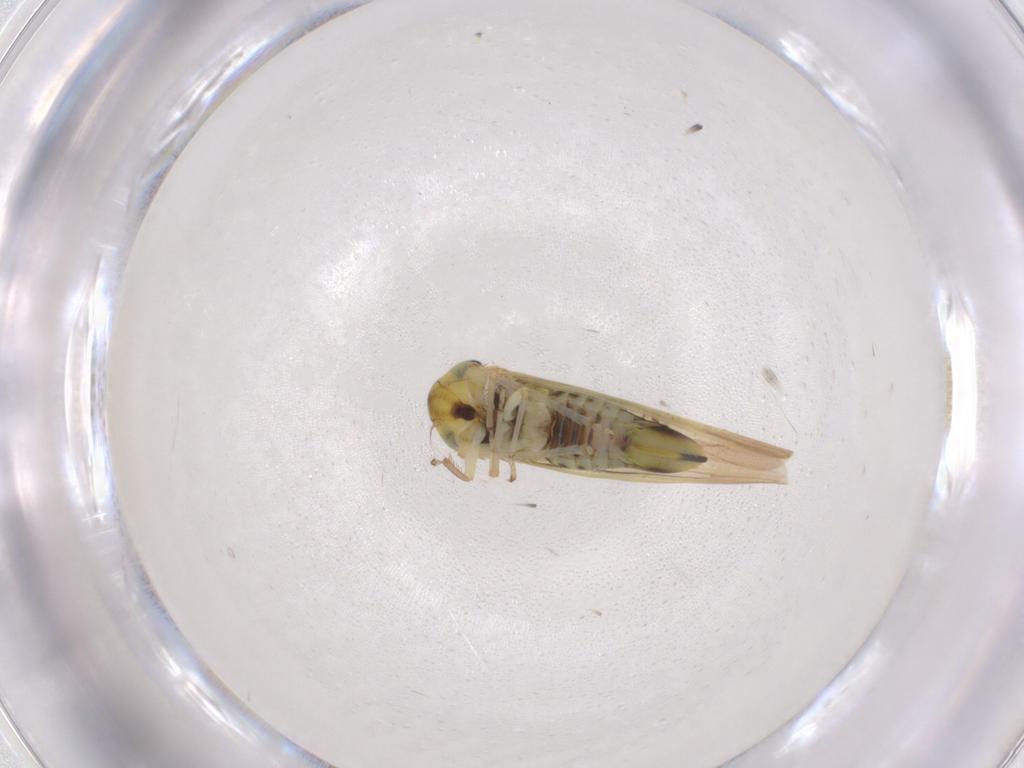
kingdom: Animalia
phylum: Arthropoda
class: Insecta
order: Hemiptera
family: Cicadellidae
